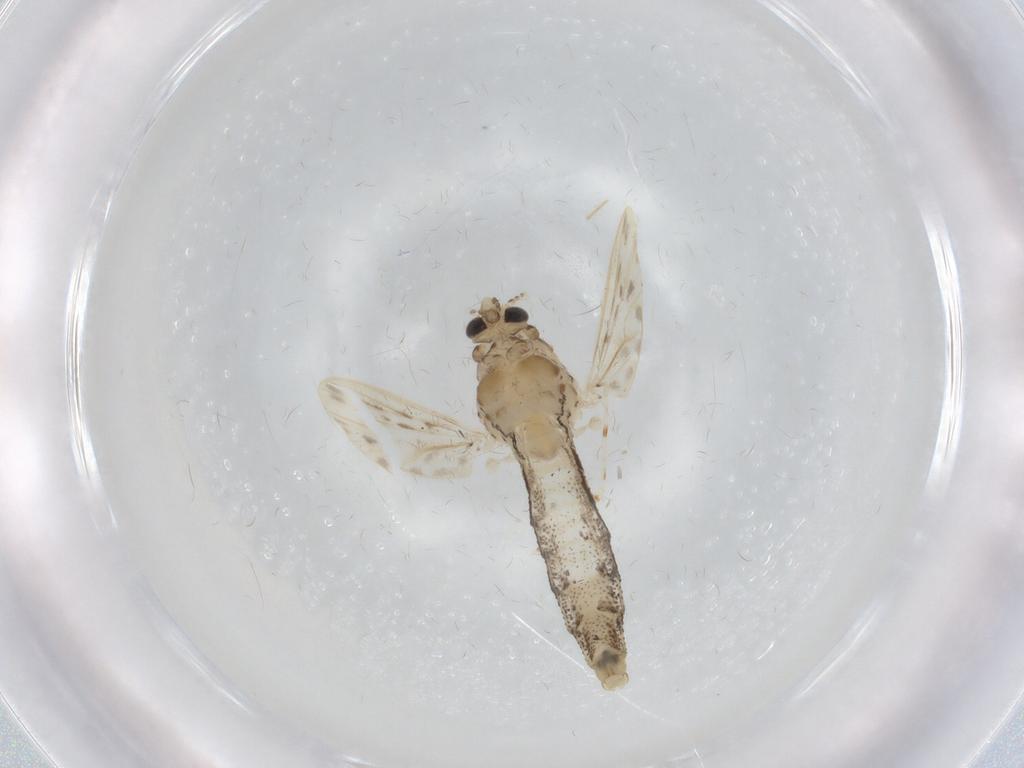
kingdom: Animalia
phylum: Arthropoda
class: Insecta
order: Diptera
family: Chaoboridae
